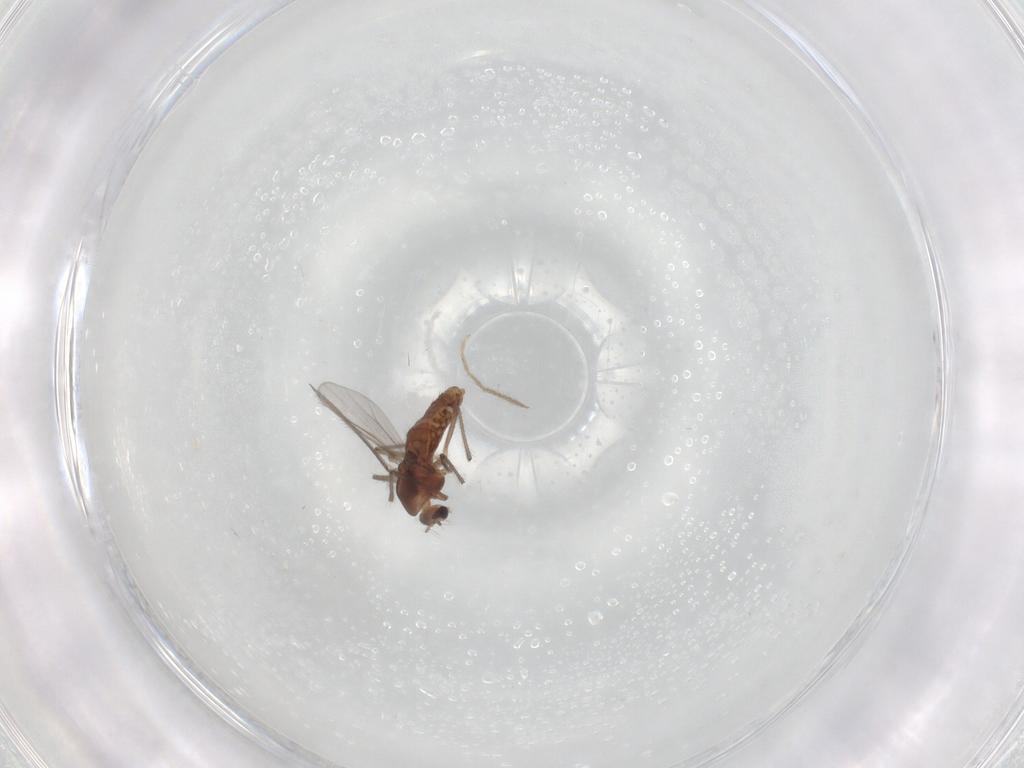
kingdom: Animalia
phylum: Arthropoda
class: Insecta
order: Diptera
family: Chironomidae
